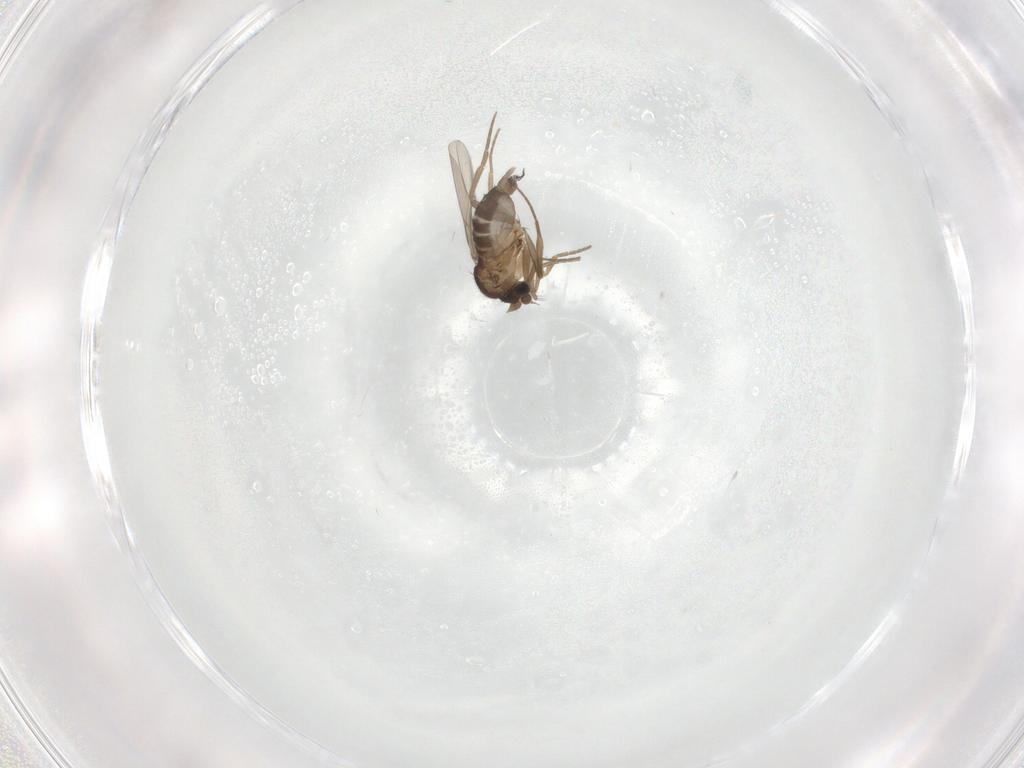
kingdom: Animalia
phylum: Arthropoda
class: Insecta
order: Diptera
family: Phoridae
